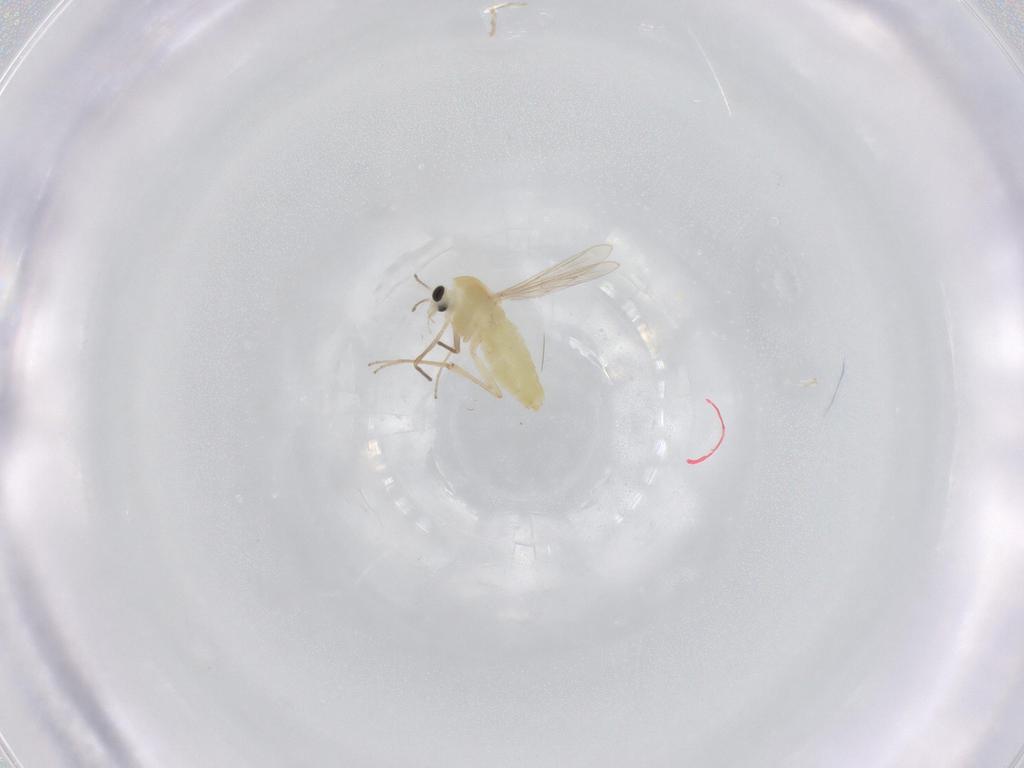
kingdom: Animalia
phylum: Arthropoda
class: Insecta
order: Diptera
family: Chironomidae
